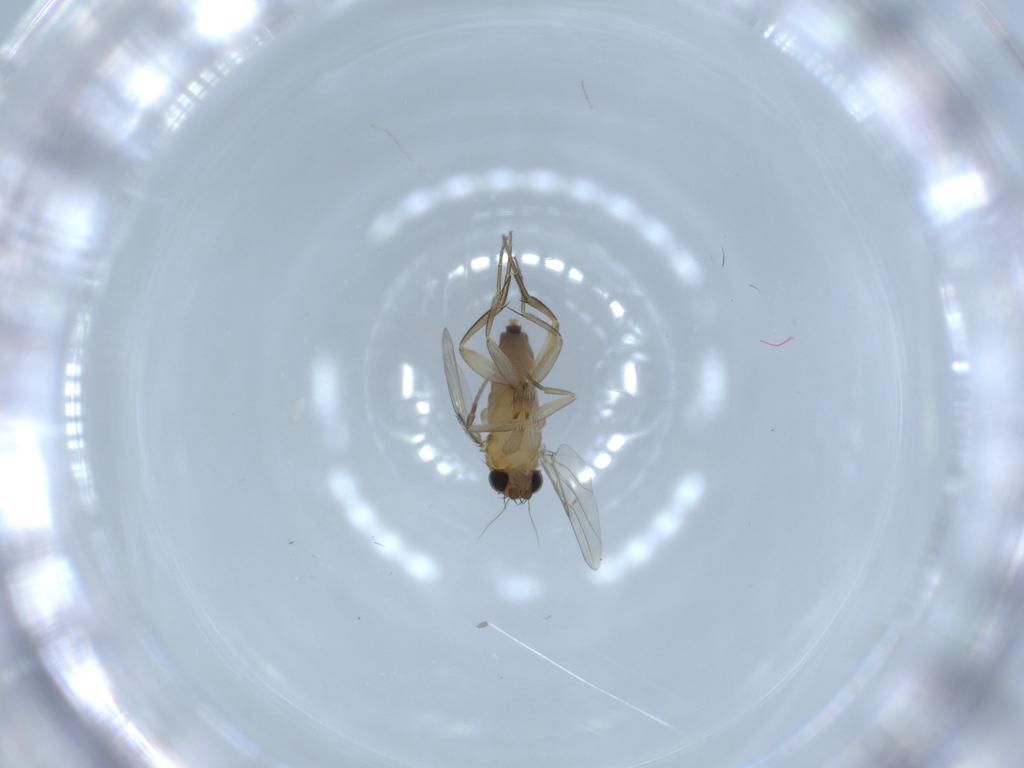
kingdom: Animalia
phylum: Arthropoda
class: Insecta
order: Diptera
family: Phoridae
